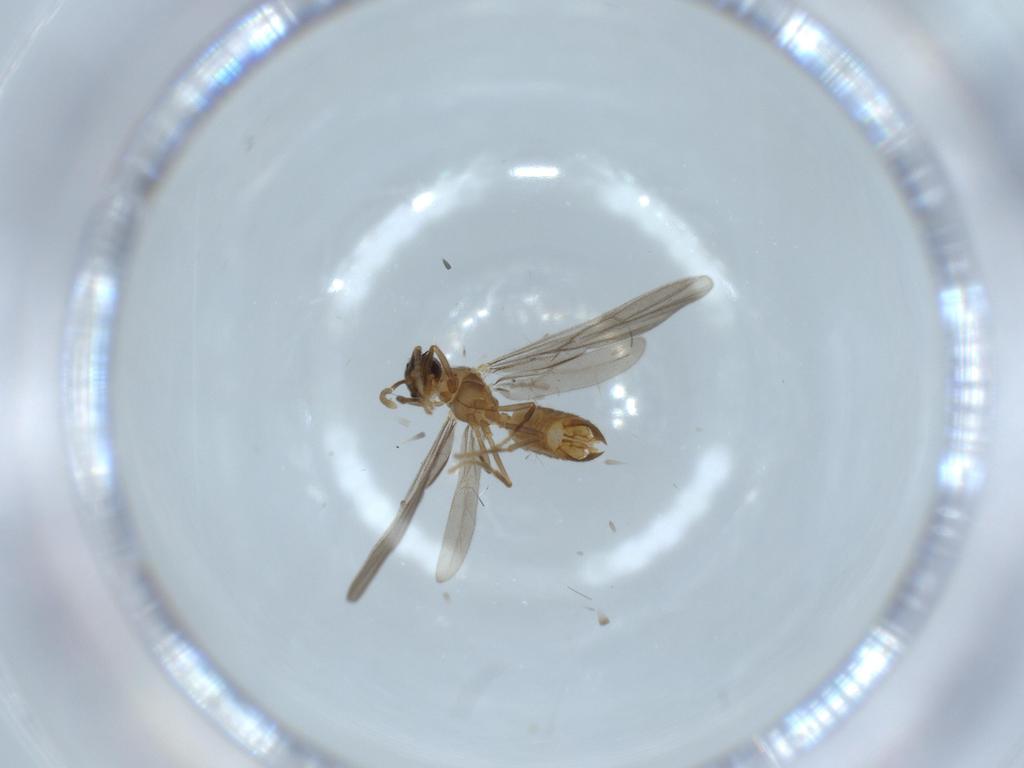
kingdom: Animalia
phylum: Arthropoda
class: Insecta
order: Hymenoptera
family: Formicidae
